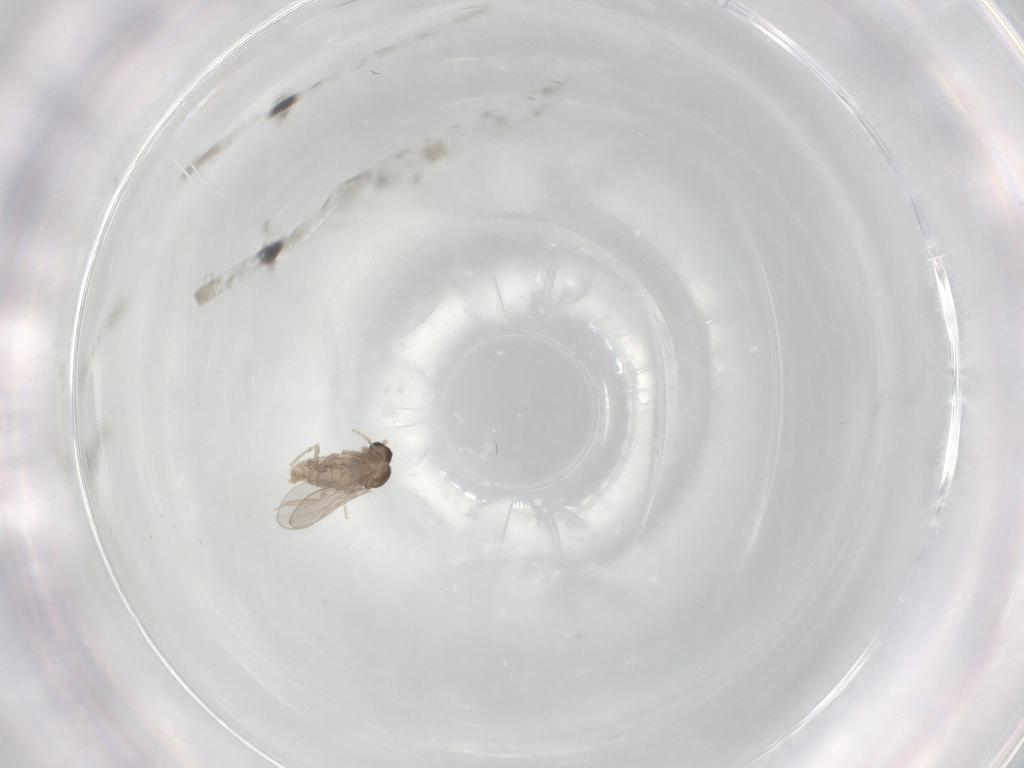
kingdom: Animalia
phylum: Arthropoda
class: Insecta
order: Diptera
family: Cecidomyiidae
